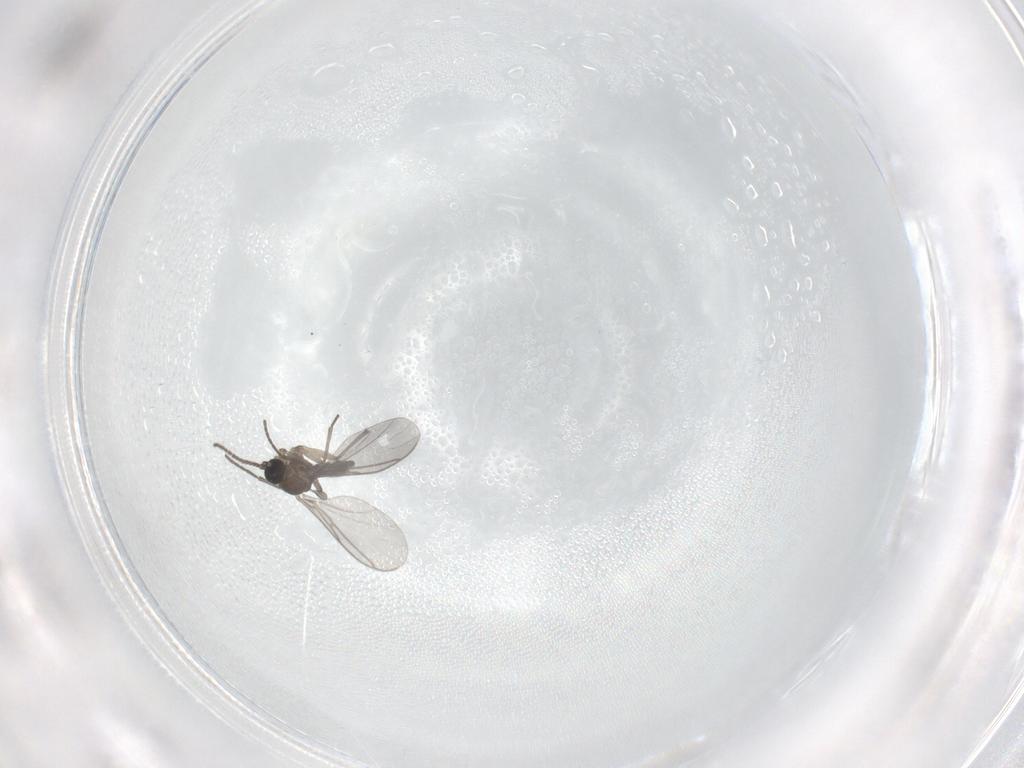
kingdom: Animalia
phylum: Arthropoda
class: Insecta
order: Diptera
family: Sciaridae
